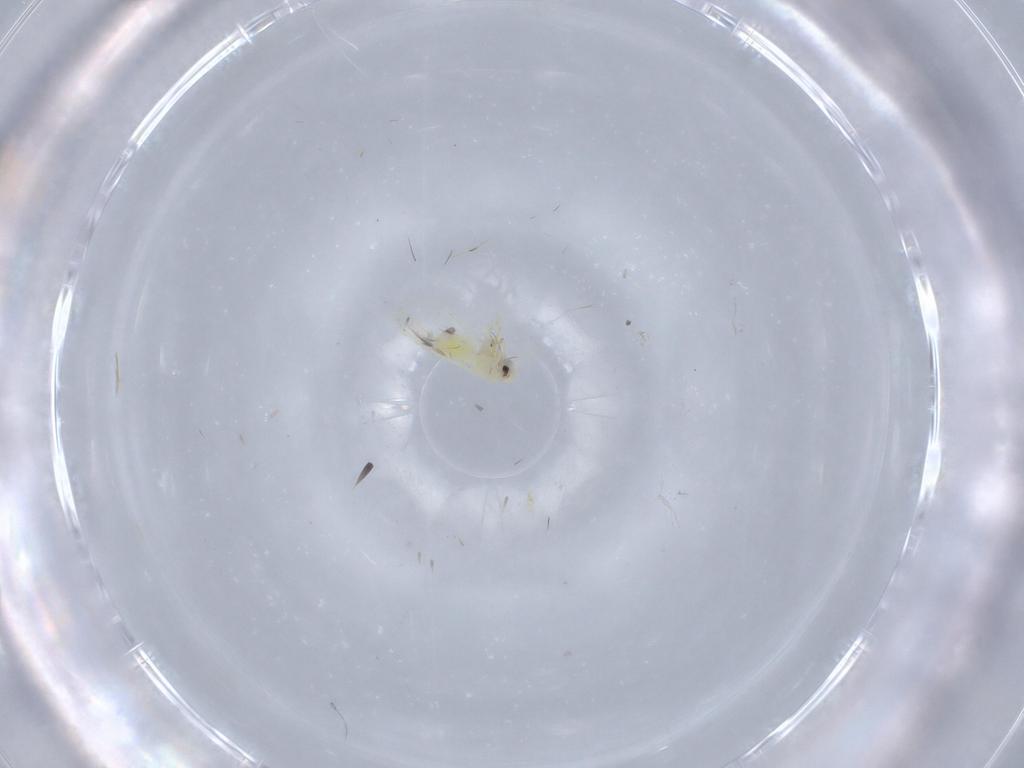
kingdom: Animalia
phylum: Arthropoda
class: Insecta
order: Hemiptera
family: Aleyrodidae
